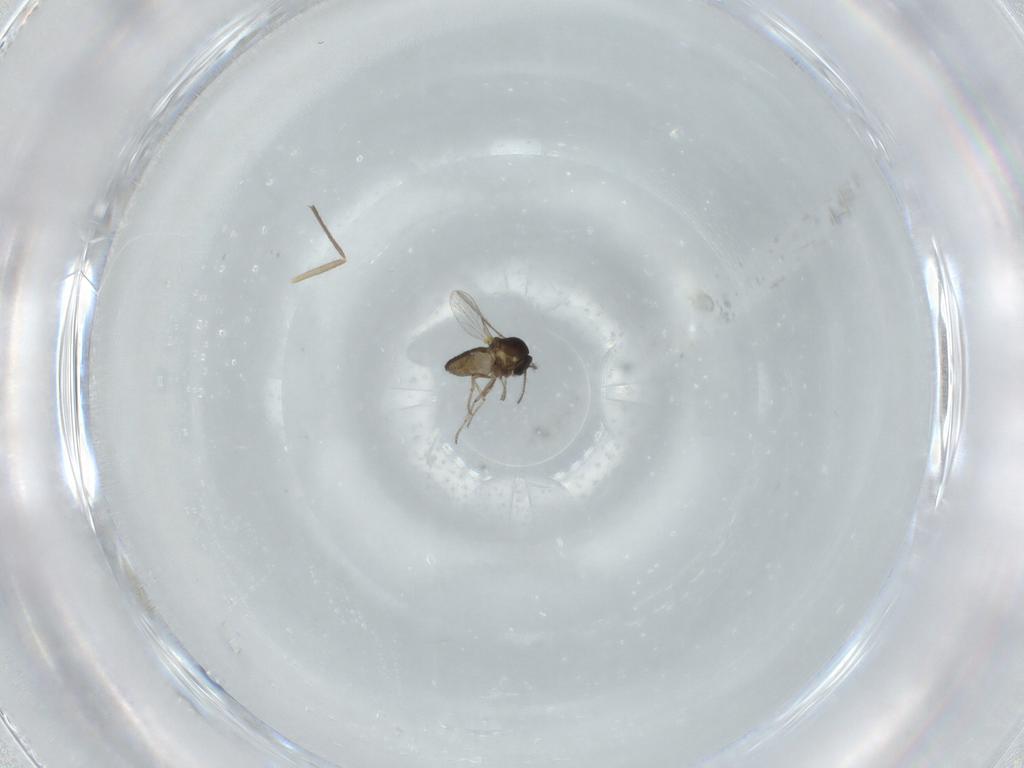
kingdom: Animalia
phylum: Arthropoda
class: Insecta
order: Diptera
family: Ceratopogonidae
